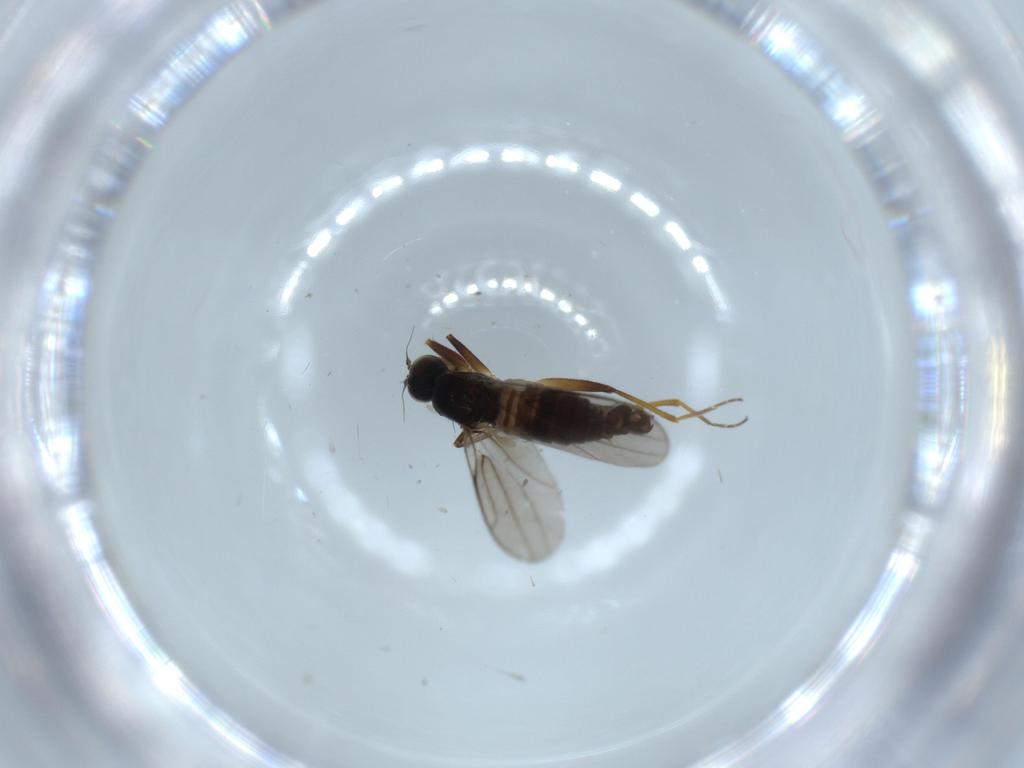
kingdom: Animalia
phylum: Arthropoda
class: Insecta
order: Diptera
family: Hybotidae
